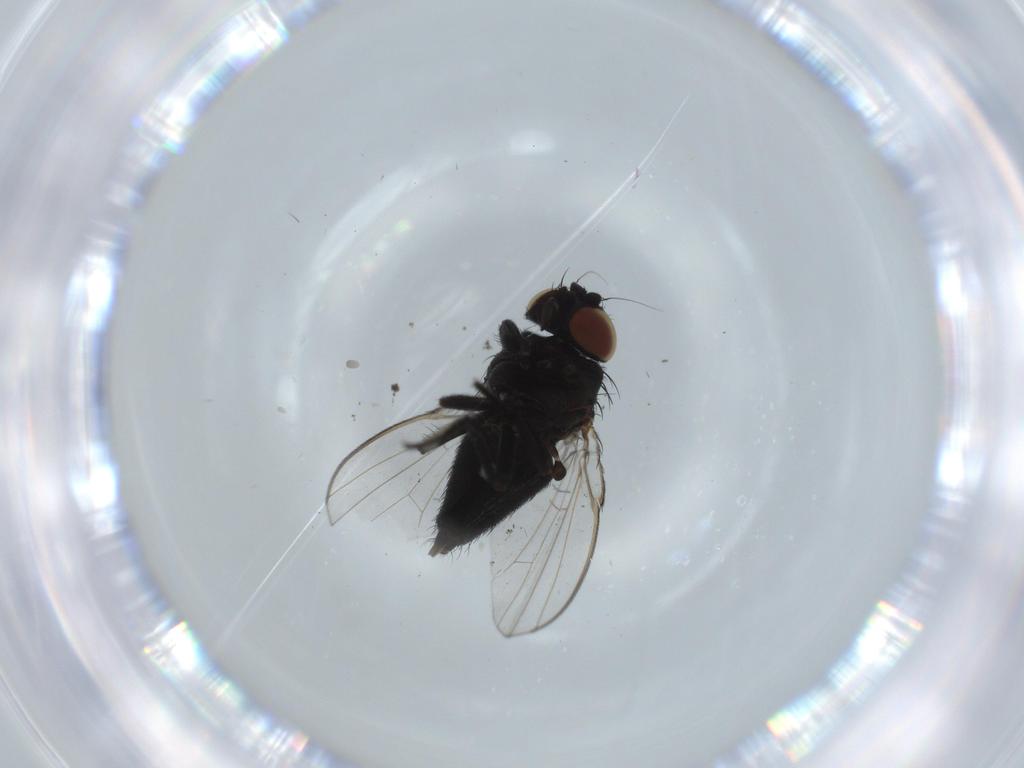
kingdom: Animalia
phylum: Arthropoda
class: Insecta
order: Diptera
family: Milichiidae
